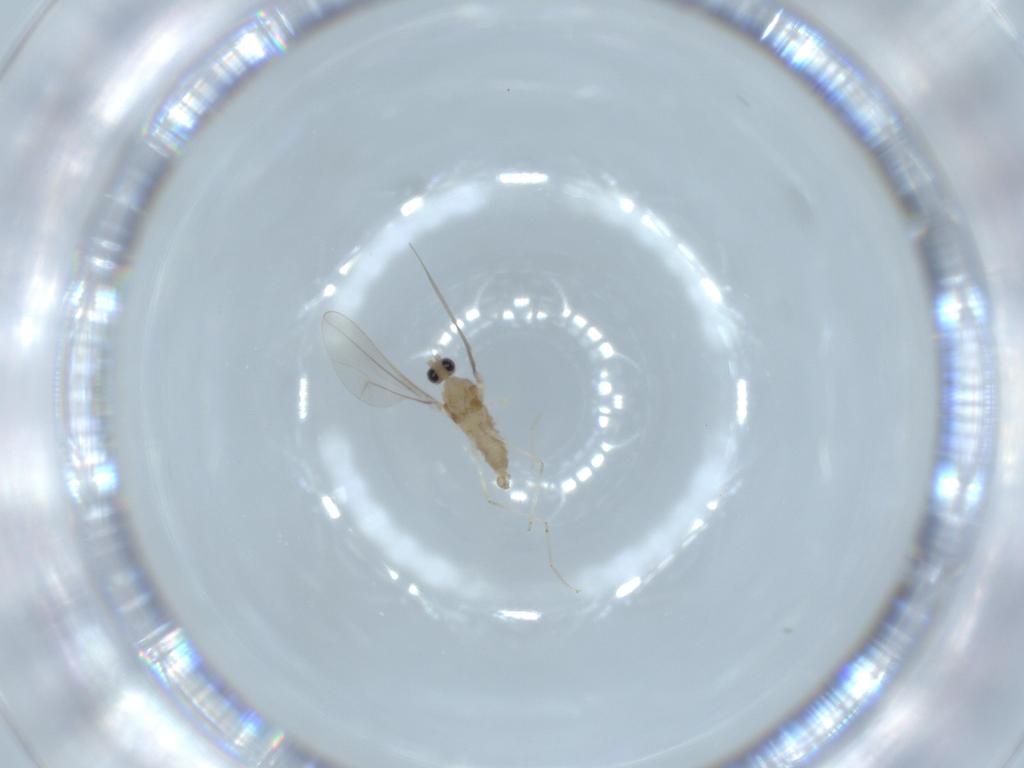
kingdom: Animalia
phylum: Arthropoda
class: Insecta
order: Diptera
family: Cecidomyiidae
